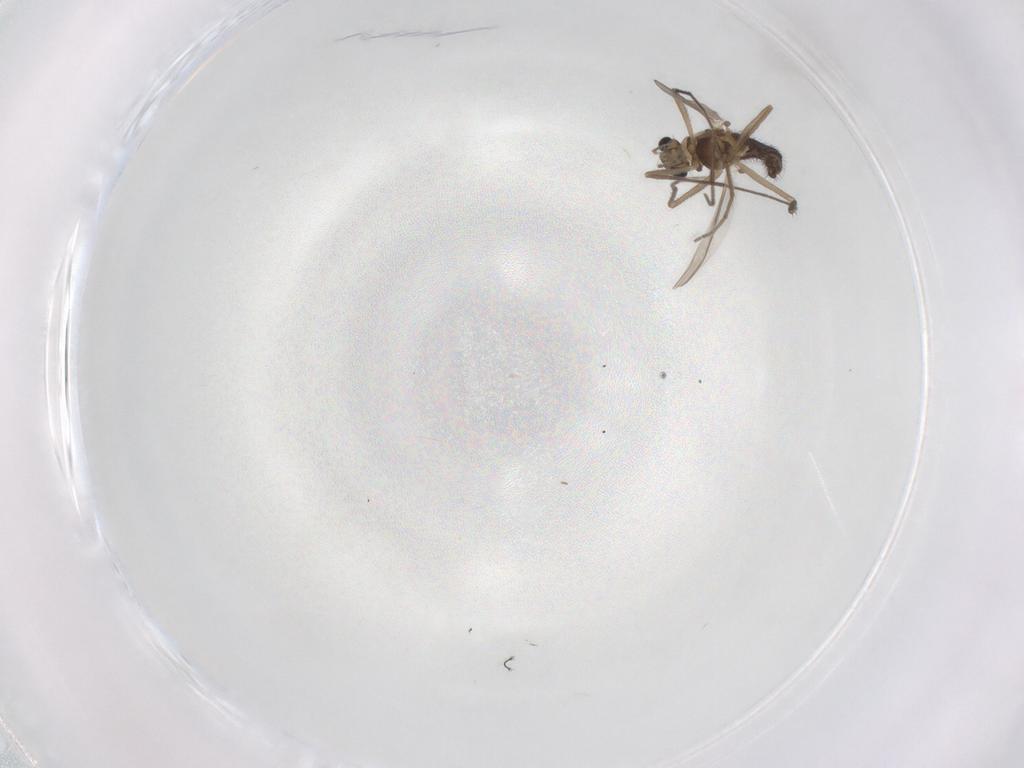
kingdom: Animalia
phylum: Arthropoda
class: Insecta
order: Diptera
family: Chironomidae
